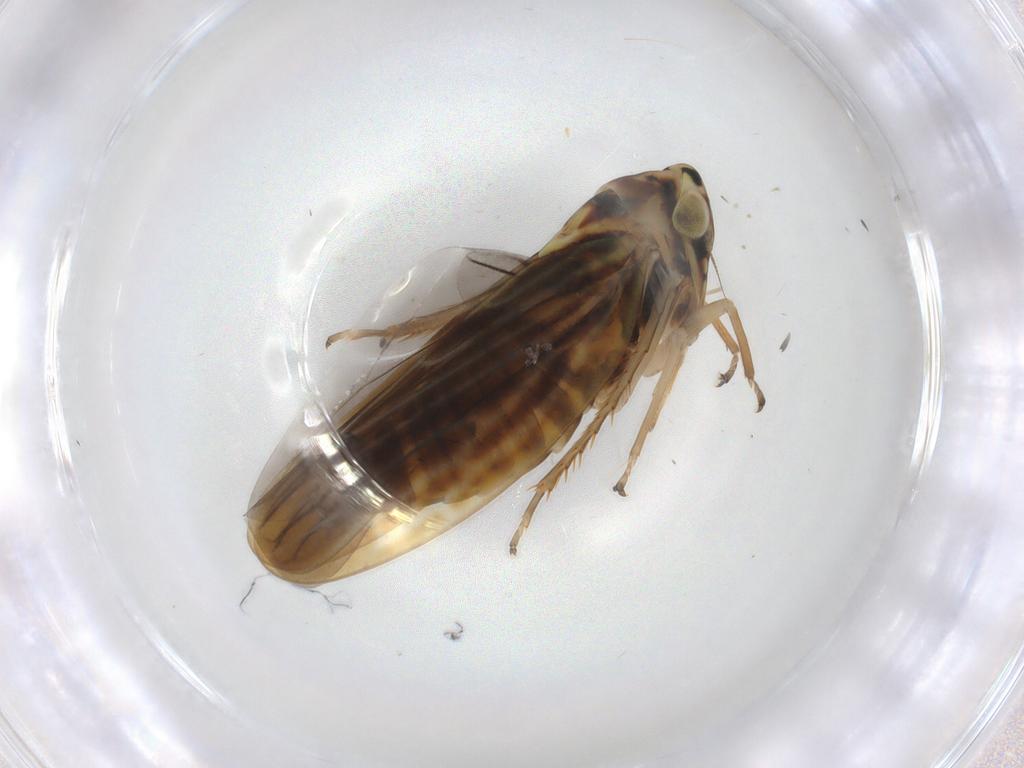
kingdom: Animalia
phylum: Arthropoda
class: Insecta
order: Hemiptera
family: Cicadellidae
